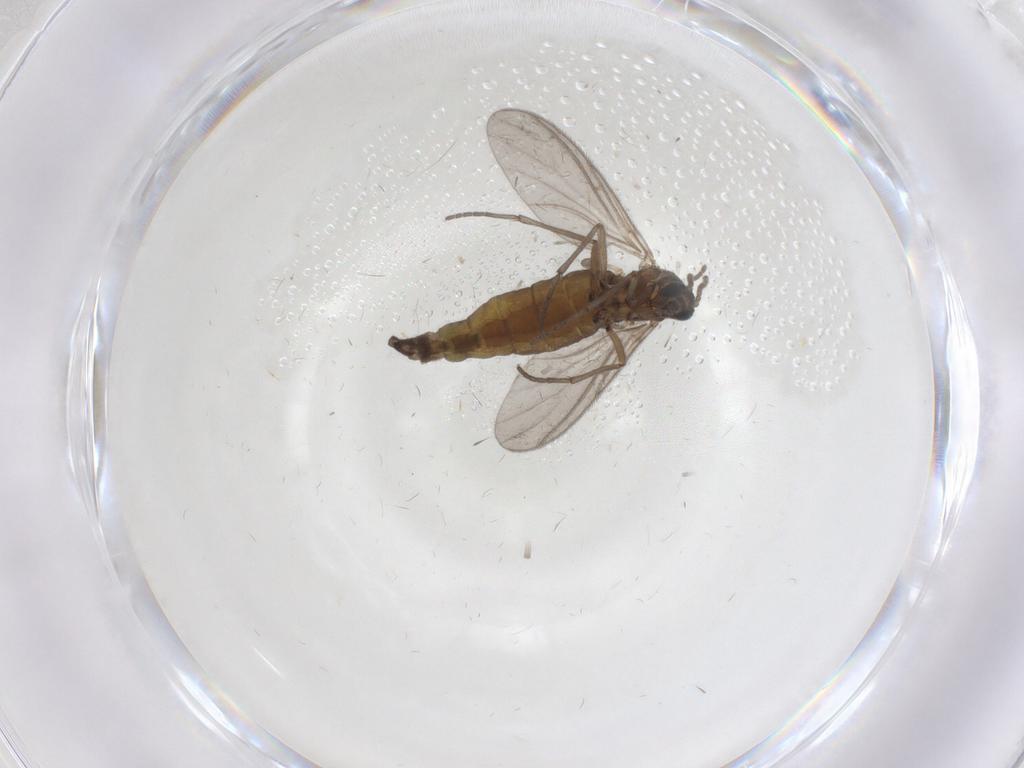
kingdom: Animalia
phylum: Arthropoda
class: Insecta
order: Diptera
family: Sciaridae
